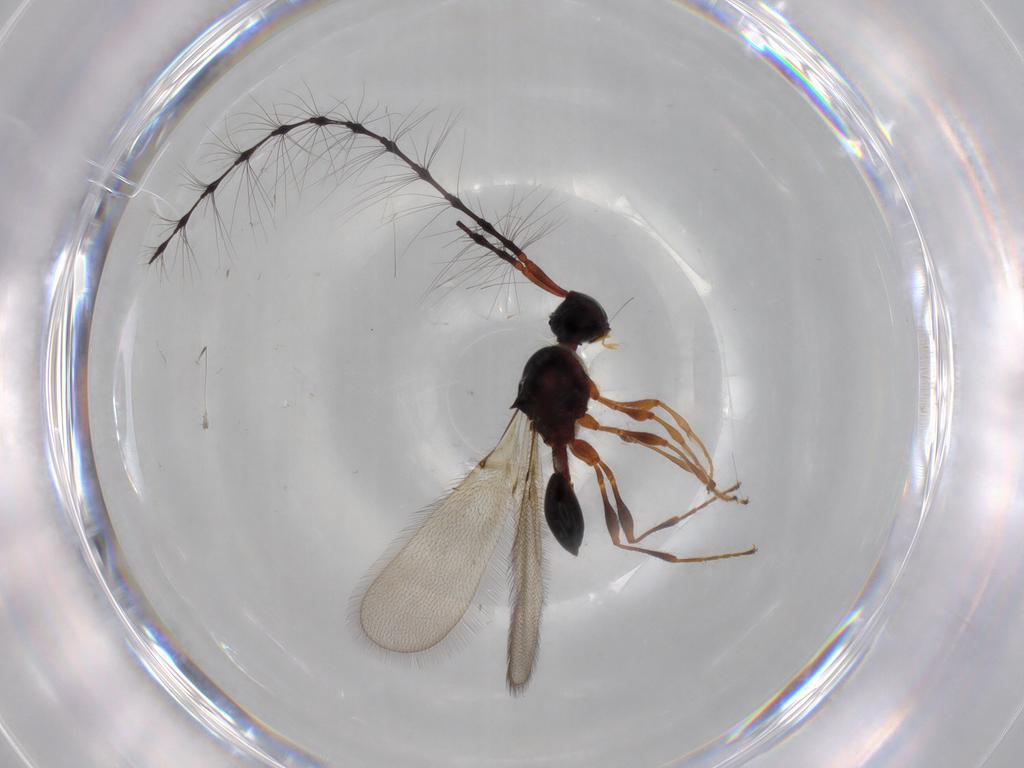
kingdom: Animalia
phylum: Arthropoda
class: Insecta
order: Hymenoptera
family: Diapriidae
